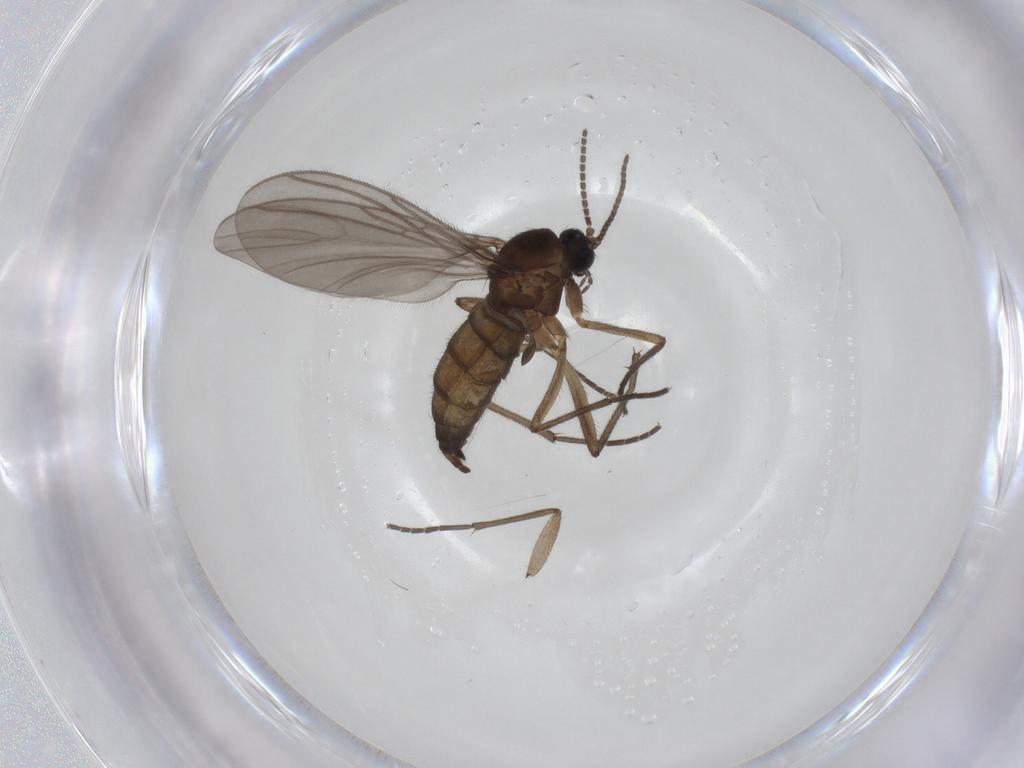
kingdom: Animalia
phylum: Arthropoda
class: Insecta
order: Diptera
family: Sciaridae
